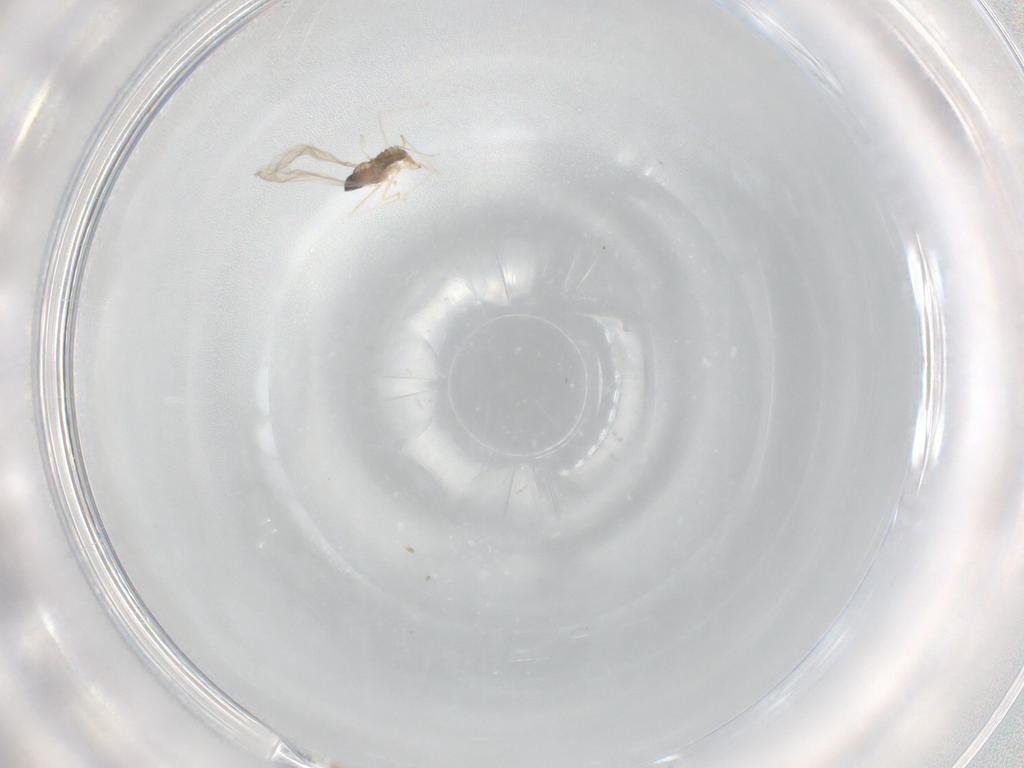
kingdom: Animalia
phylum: Arthropoda
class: Insecta
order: Diptera
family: Cecidomyiidae
